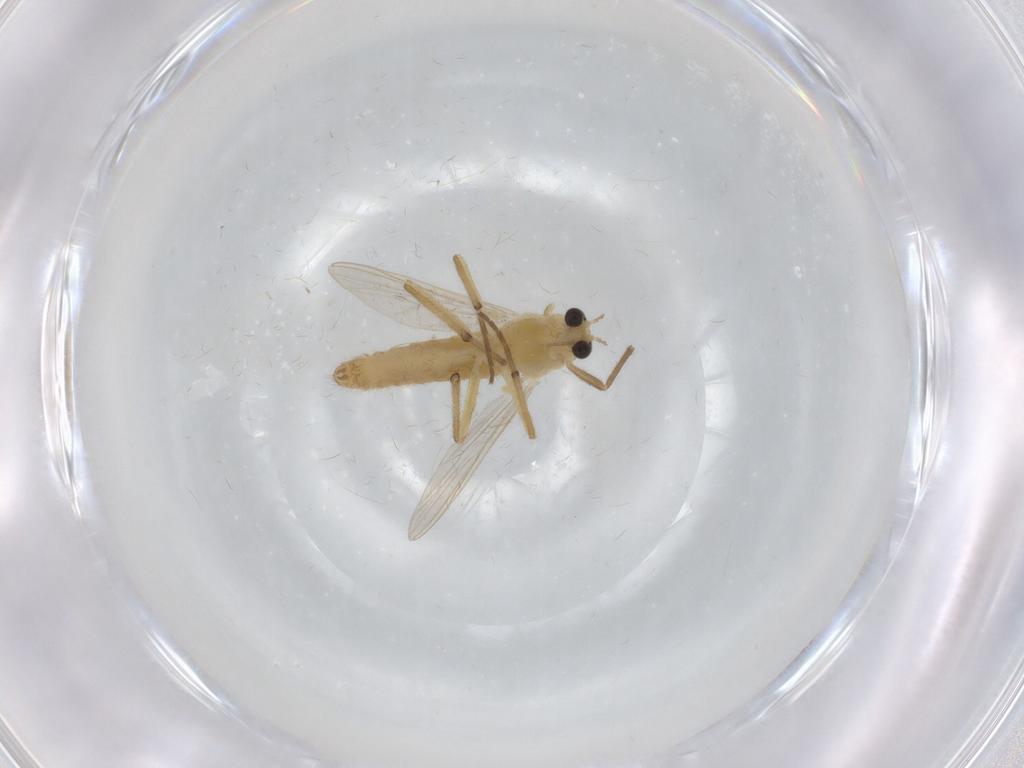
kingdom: Animalia
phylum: Arthropoda
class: Insecta
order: Diptera
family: Chironomidae
